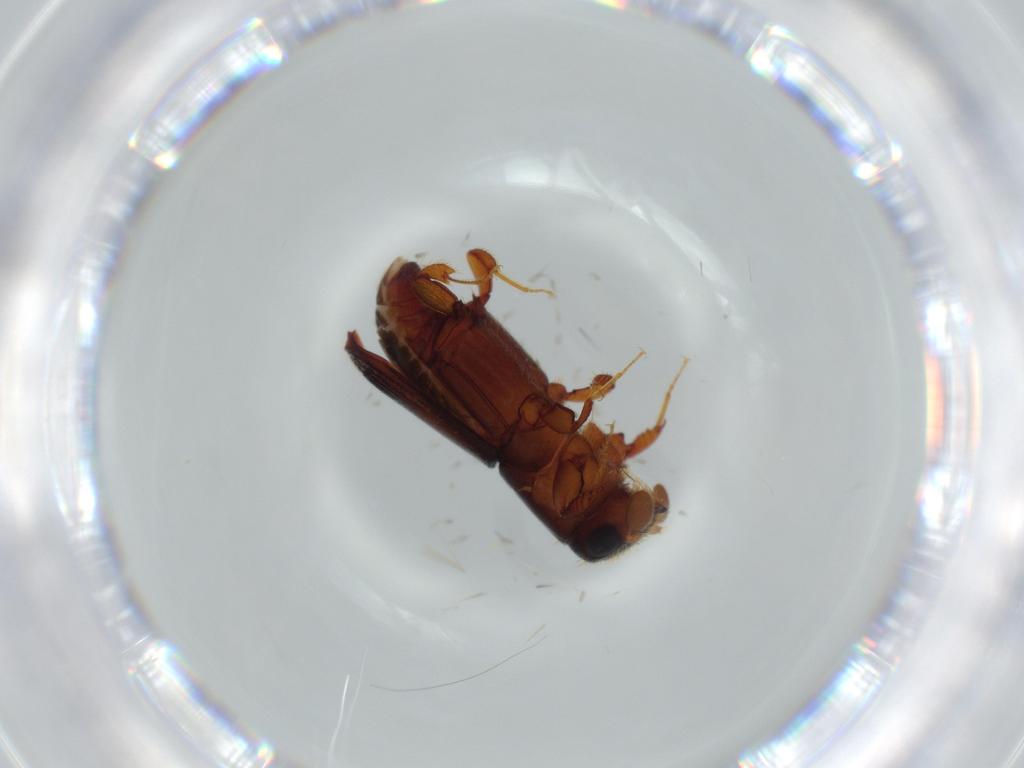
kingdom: Animalia
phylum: Arthropoda
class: Insecta
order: Coleoptera
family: Curculionidae
